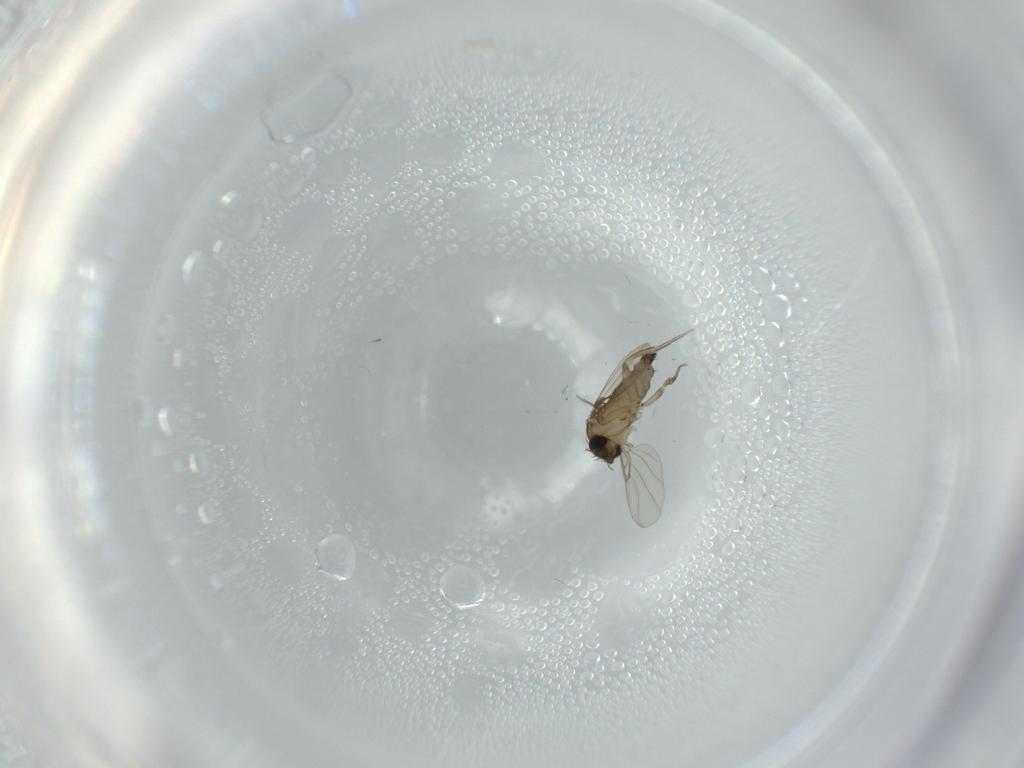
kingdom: Animalia
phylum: Arthropoda
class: Insecta
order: Diptera
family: Phoridae
